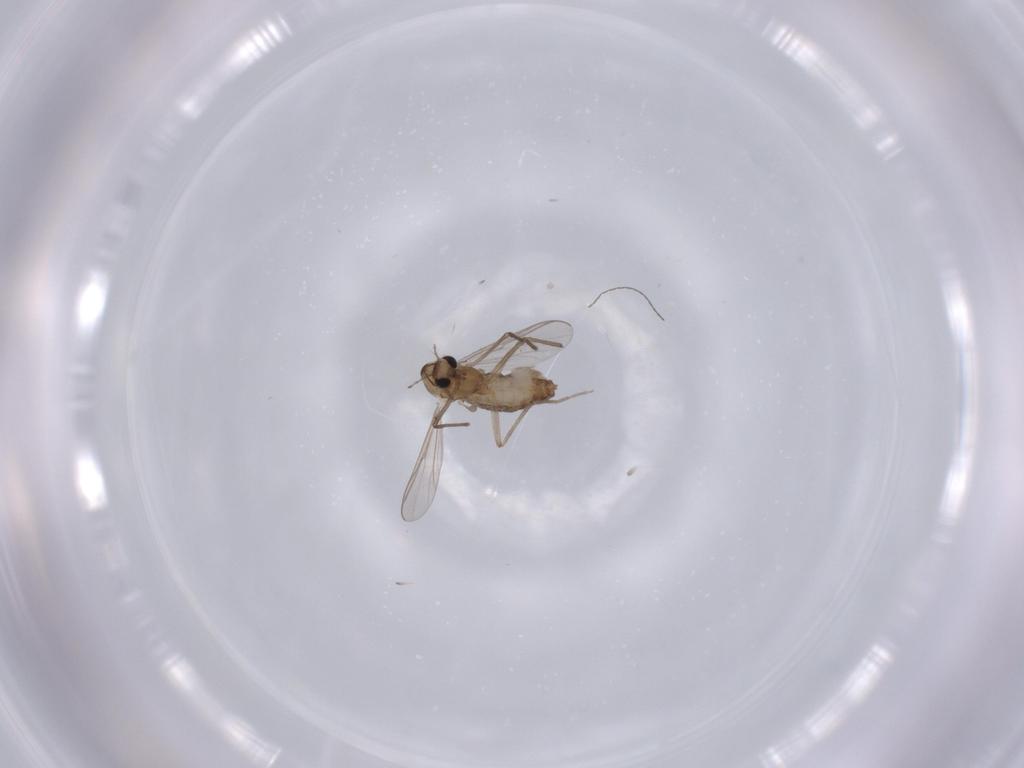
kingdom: Animalia
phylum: Arthropoda
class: Insecta
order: Diptera
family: Chironomidae
